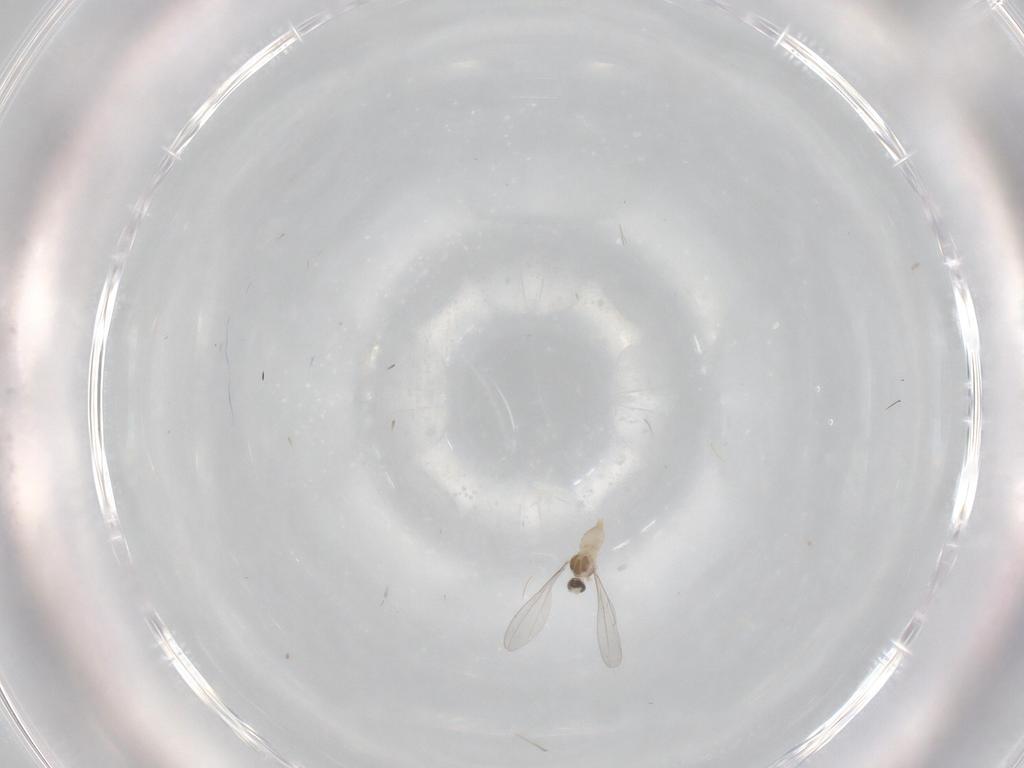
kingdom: Animalia
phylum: Arthropoda
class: Insecta
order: Diptera
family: Cecidomyiidae
